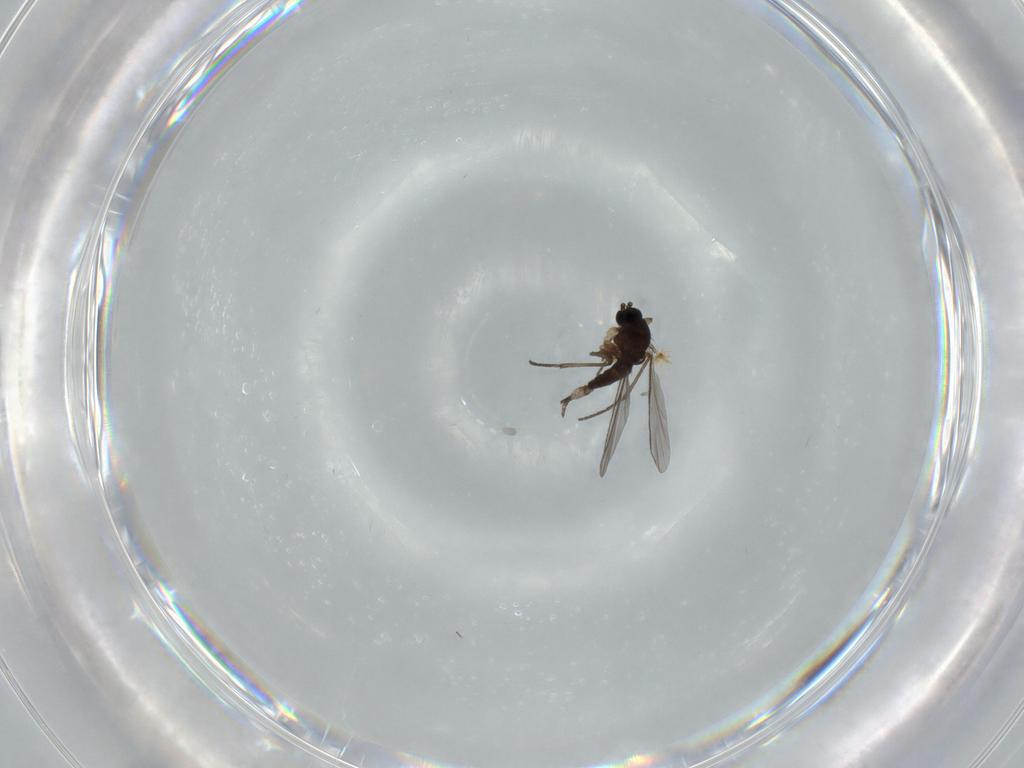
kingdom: Animalia
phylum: Arthropoda
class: Insecta
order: Diptera
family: Sciaridae
